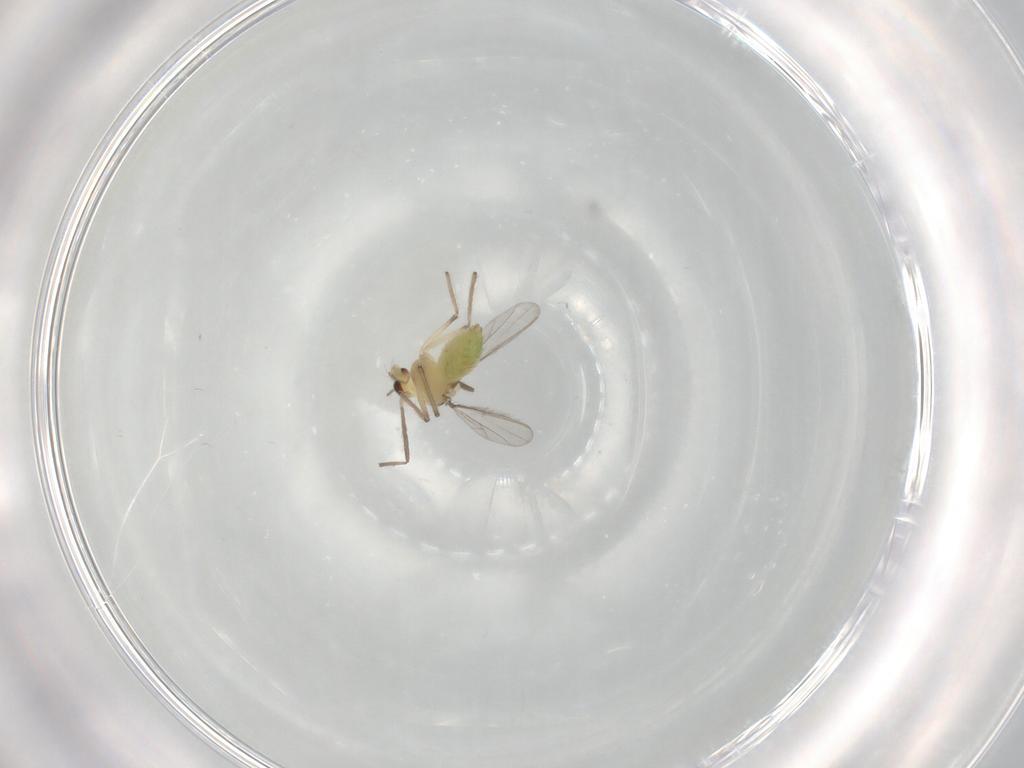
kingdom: Animalia
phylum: Arthropoda
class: Insecta
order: Diptera
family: Chironomidae
